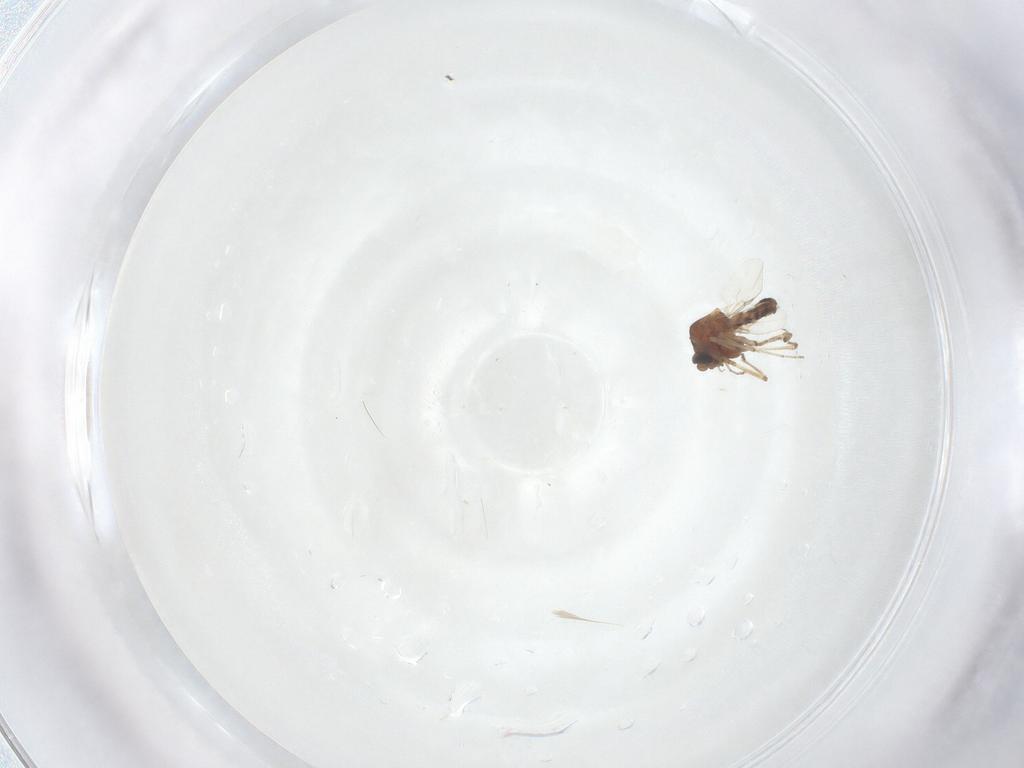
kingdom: Animalia
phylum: Arthropoda
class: Insecta
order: Diptera
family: Ceratopogonidae
